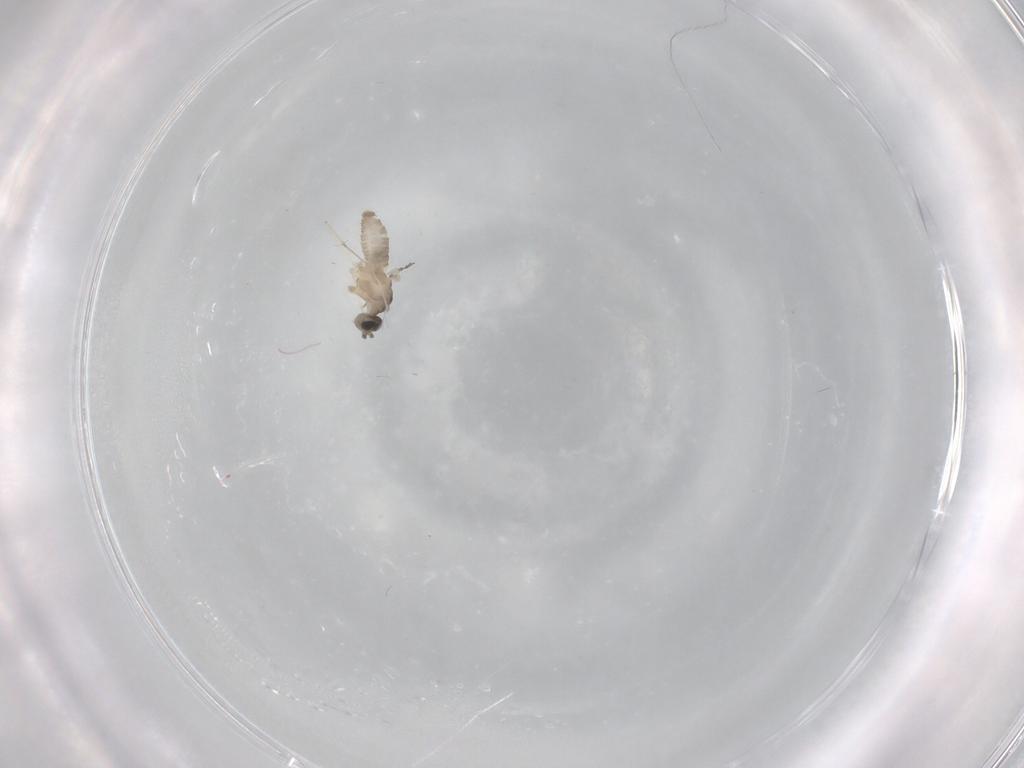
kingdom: Animalia
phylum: Arthropoda
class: Insecta
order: Diptera
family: Cecidomyiidae
